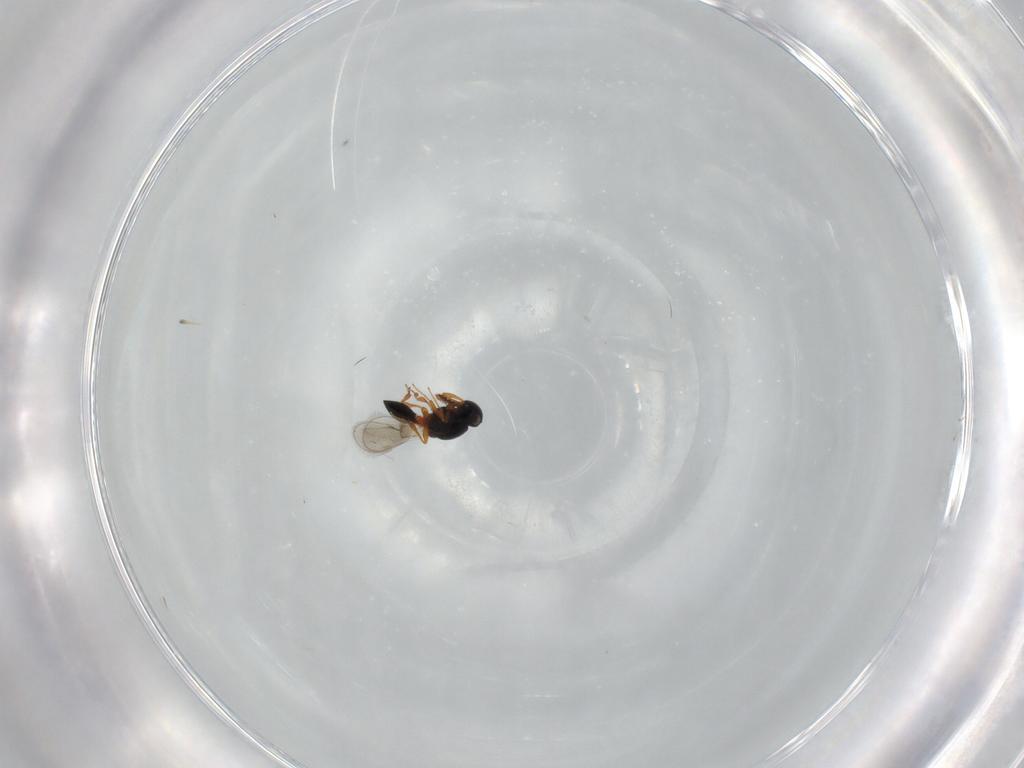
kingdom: Animalia
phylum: Arthropoda
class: Insecta
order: Hymenoptera
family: Platygastridae
